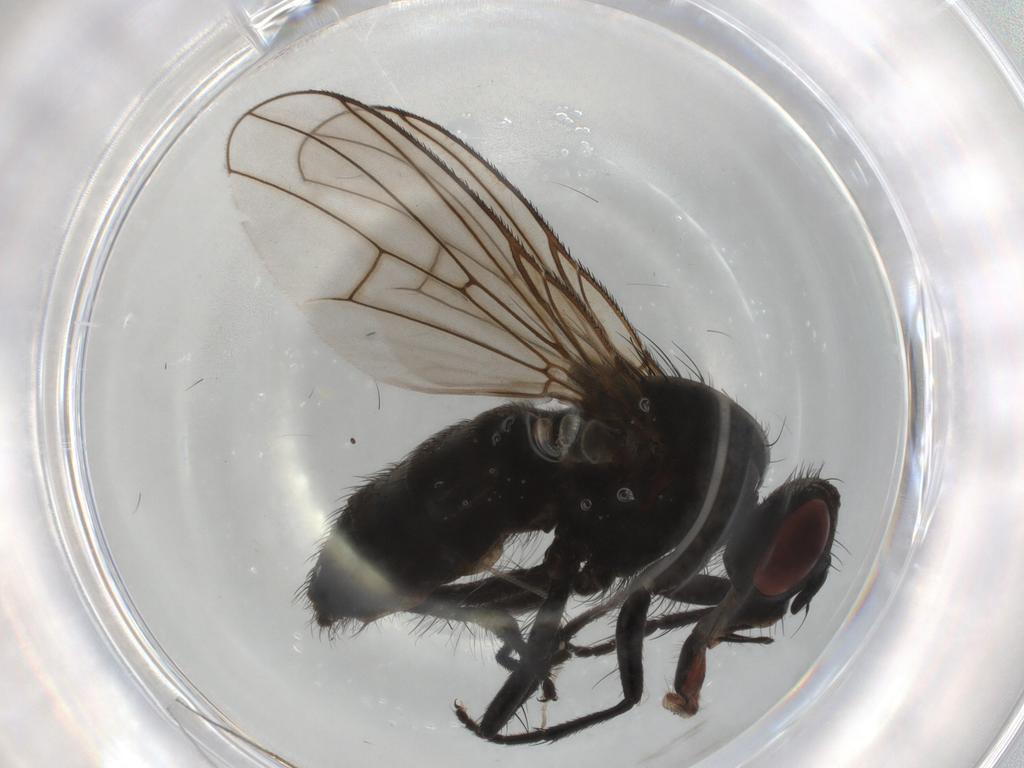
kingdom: Animalia
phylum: Arthropoda
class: Insecta
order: Diptera
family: Muscidae
